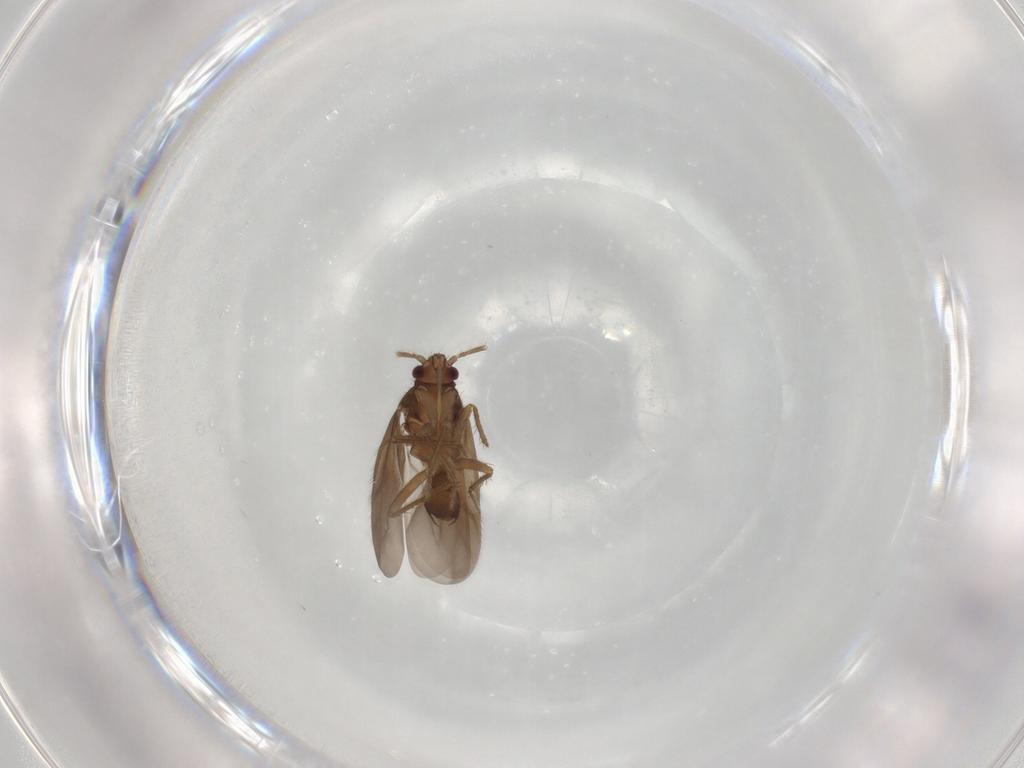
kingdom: Animalia
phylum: Arthropoda
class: Insecta
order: Hemiptera
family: Ceratocombidae
